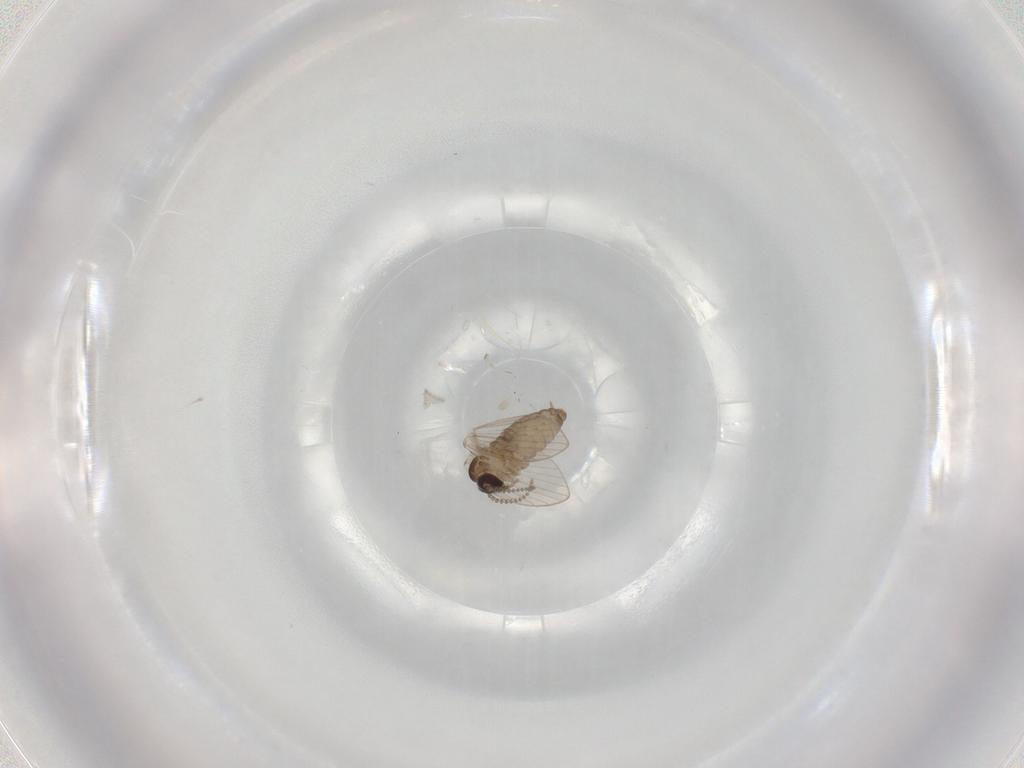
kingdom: Animalia
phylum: Arthropoda
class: Insecta
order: Diptera
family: Psychodidae
